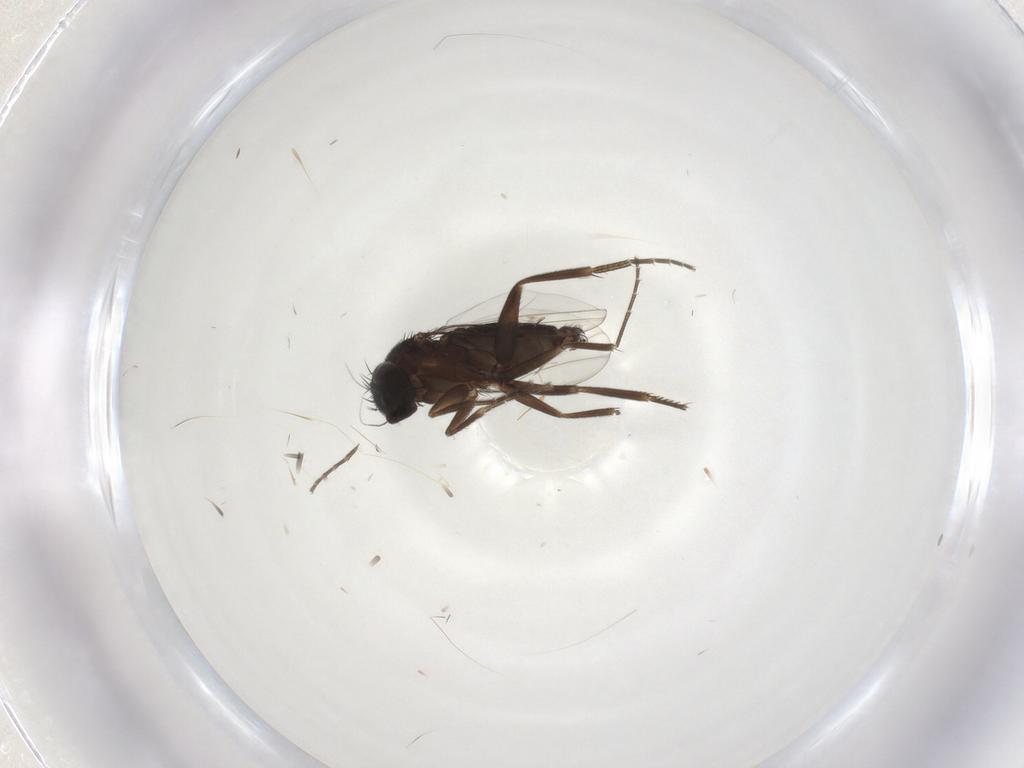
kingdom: Animalia
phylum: Arthropoda
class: Insecta
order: Diptera
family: Phoridae
